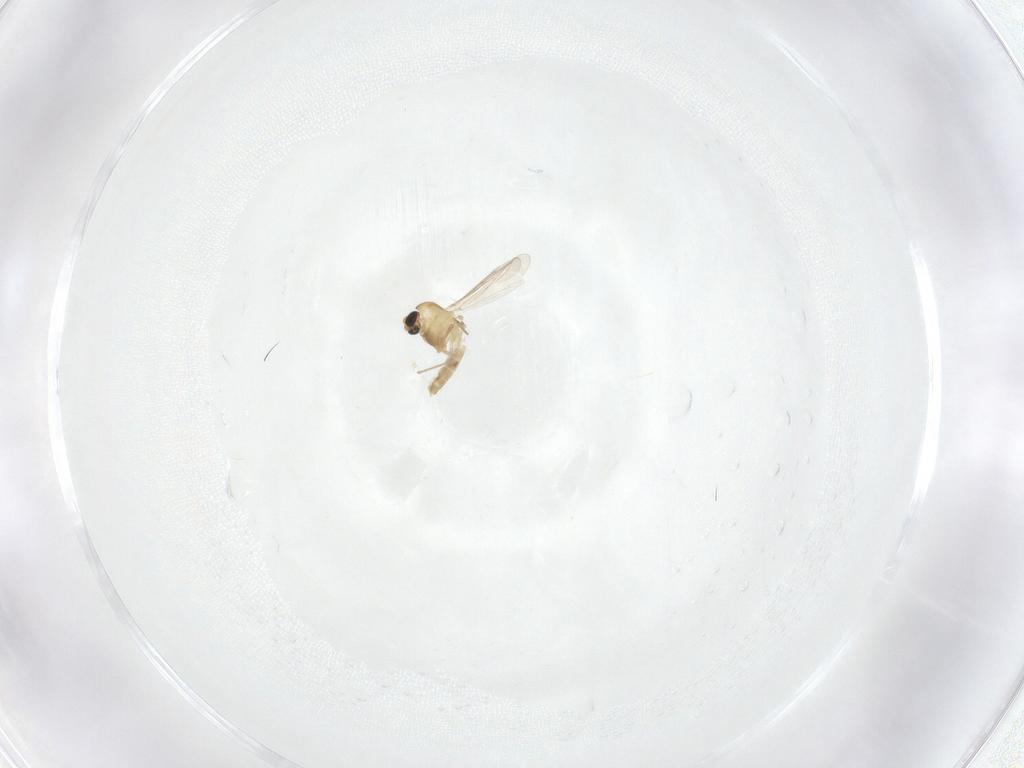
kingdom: Animalia
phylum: Arthropoda
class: Insecta
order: Diptera
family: Chironomidae
